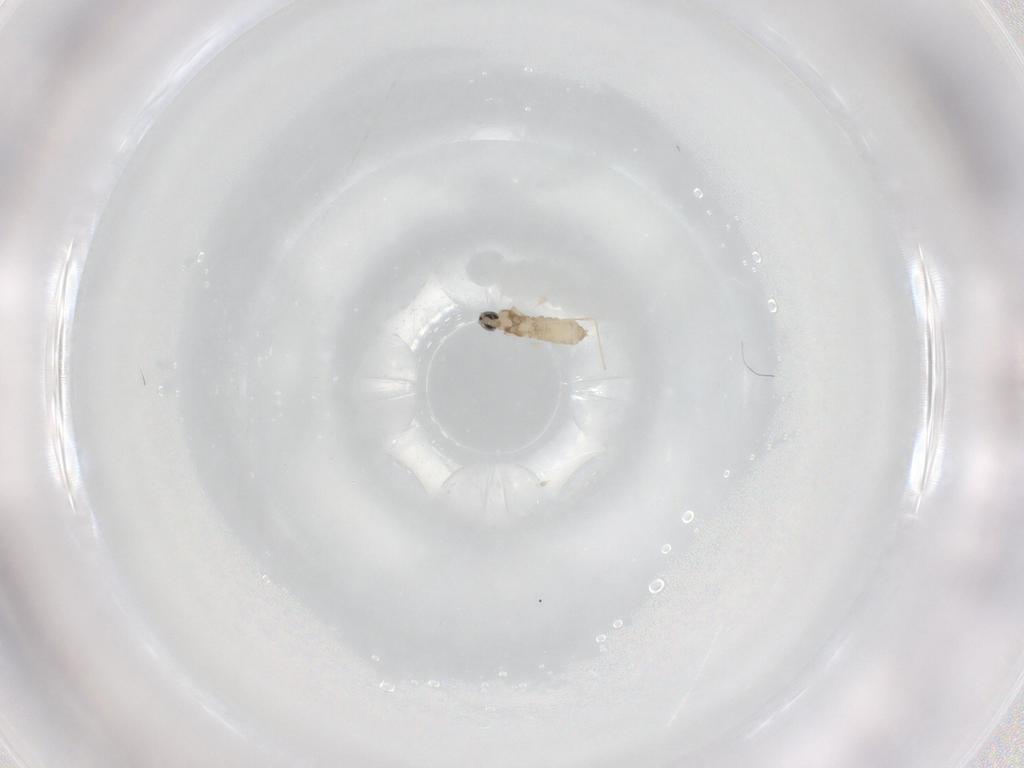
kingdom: Animalia
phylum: Arthropoda
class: Insecta
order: Diptera
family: Cecidomyiidae
